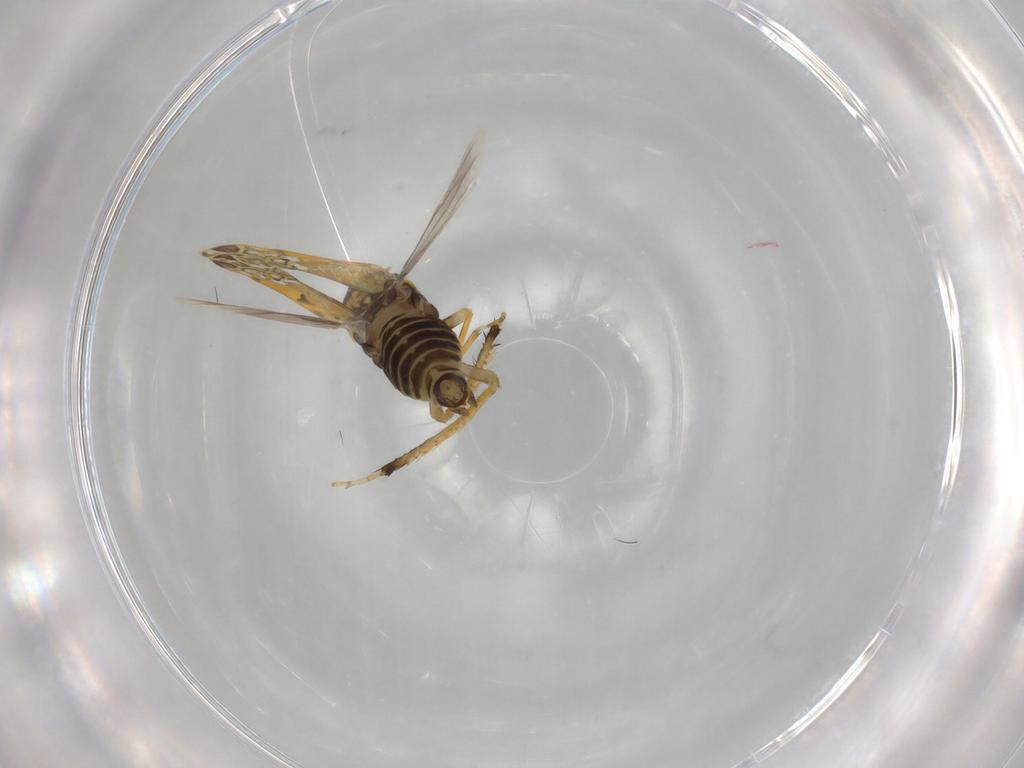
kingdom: Animalia
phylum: Arthropoda
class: Insecta
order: Hemiptera
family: Cicadellidae
